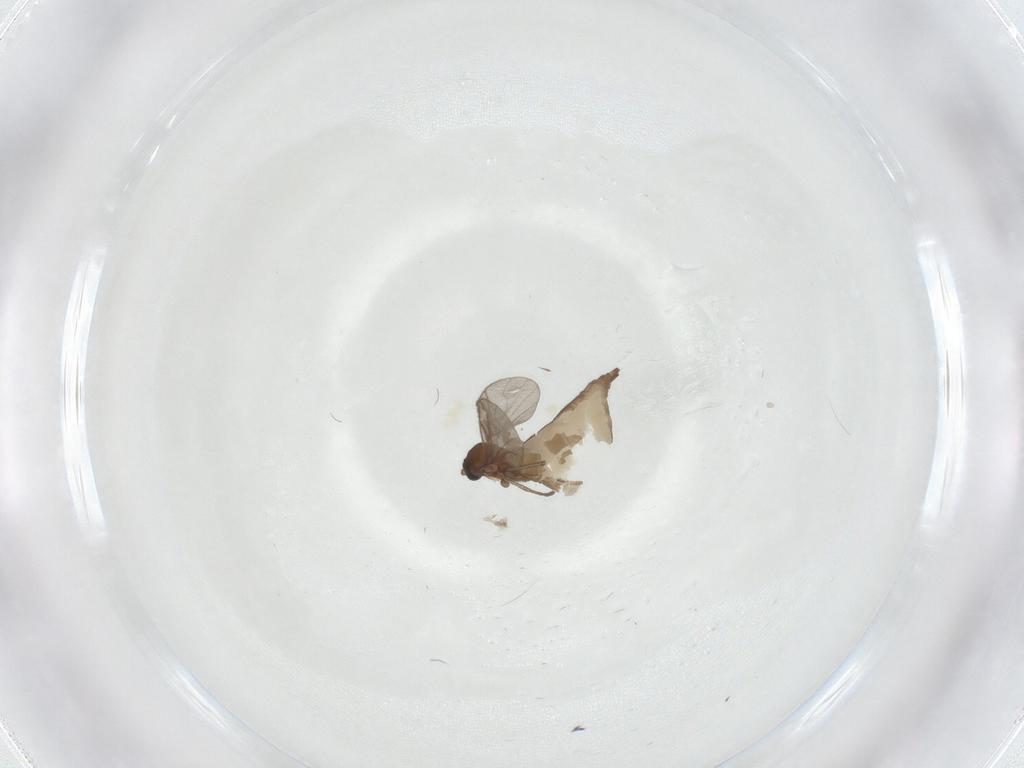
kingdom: Animalia
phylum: Arthropoda
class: Insecta
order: Diptera
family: Sciaridae
